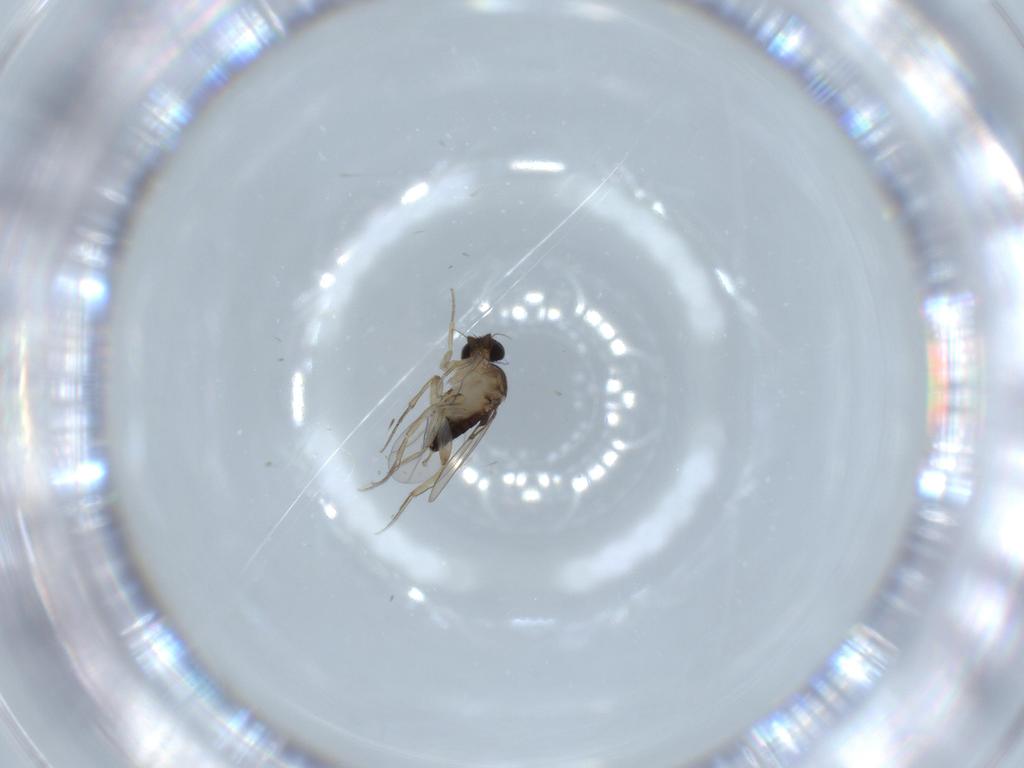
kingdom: Animalia
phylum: Arthropoda
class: Insecta
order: Diptera
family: Phoridae
